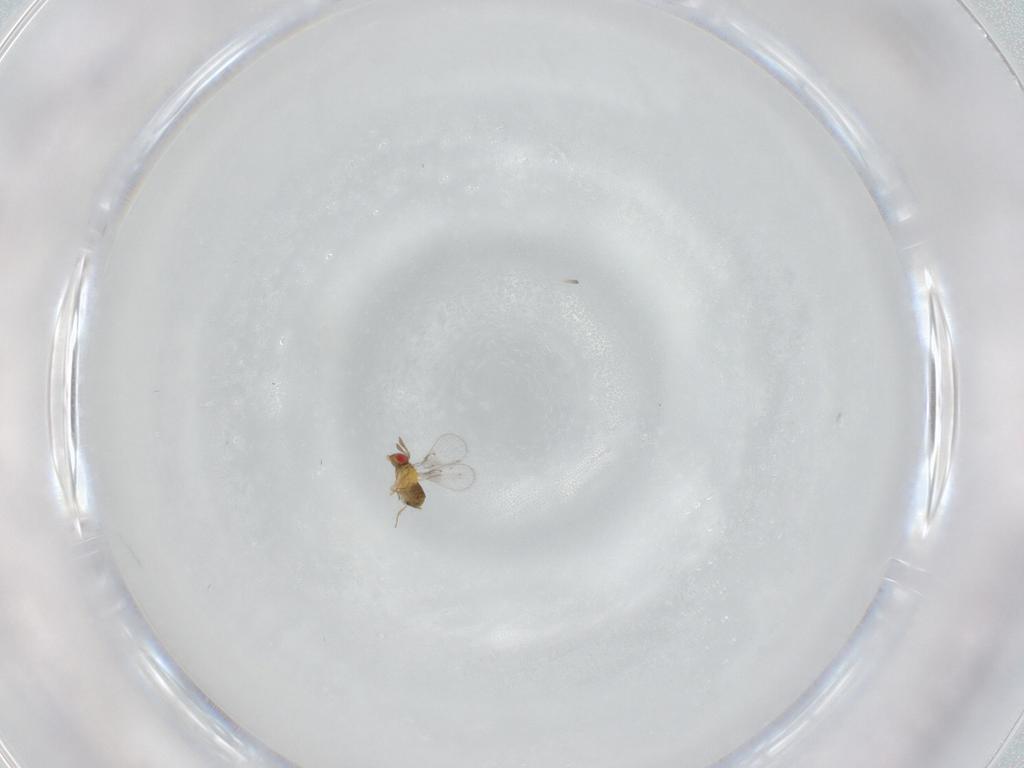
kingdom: Animalia
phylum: Arthropoda
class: Insecta
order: Hymenoptera
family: Trichogrammatidae
